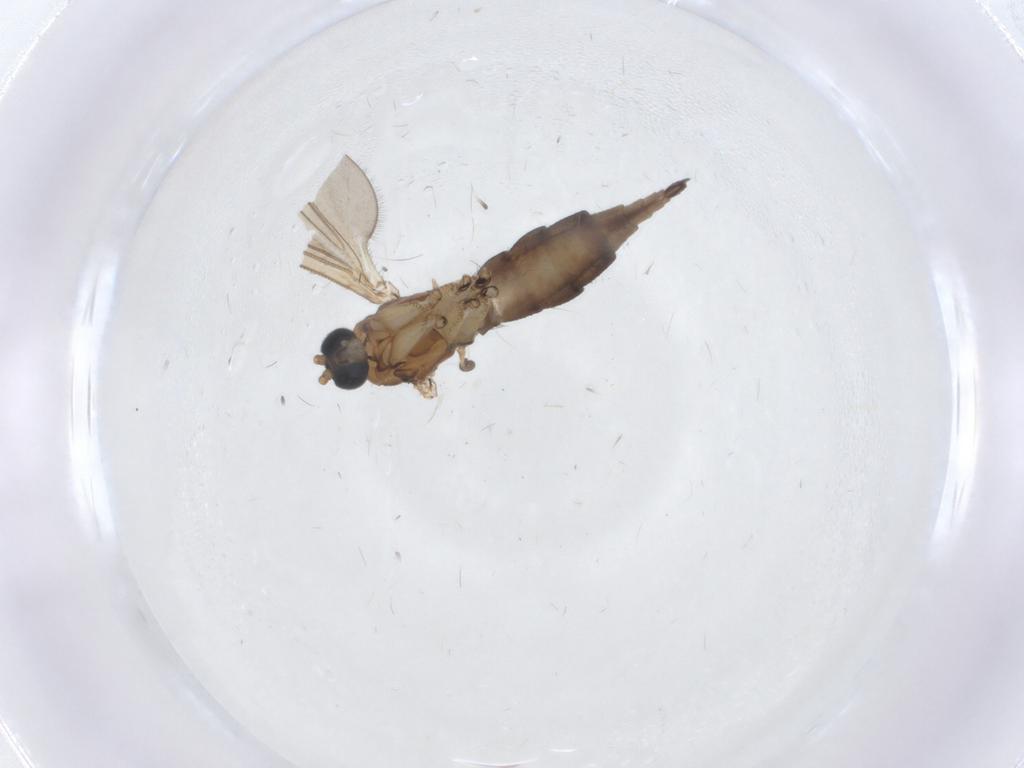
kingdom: Animalia
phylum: Arthropoda
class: Insecta
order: Diptera
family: Sciaridae
